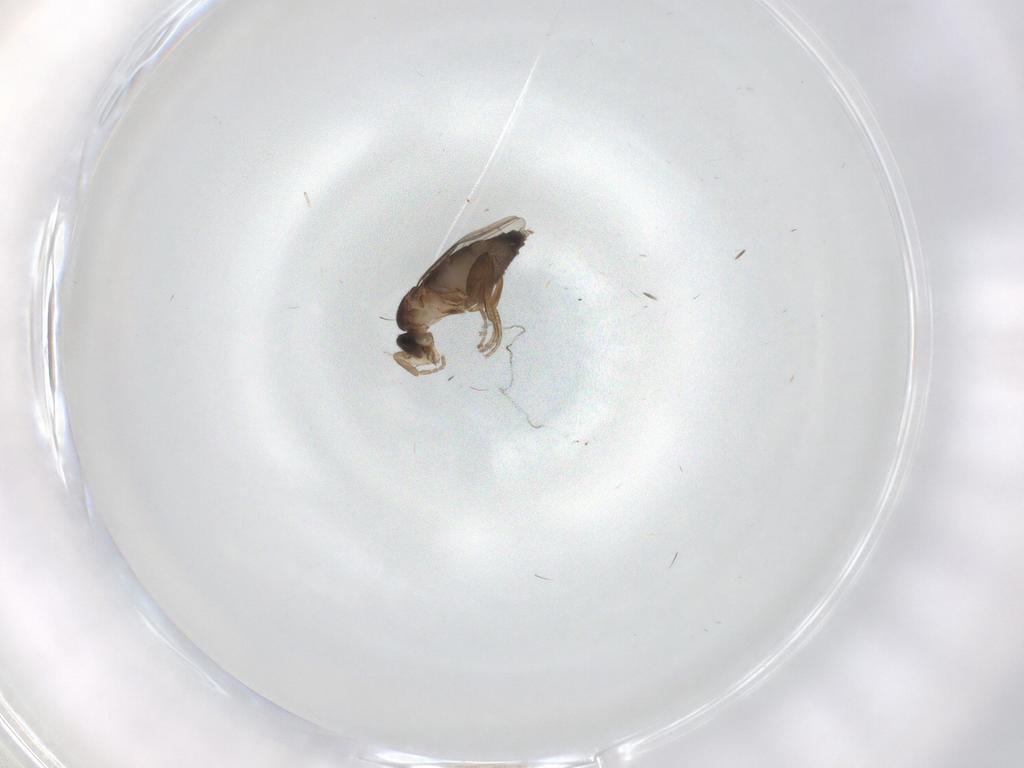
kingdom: Animalia
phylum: Arthropoda
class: Insecta
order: Diptera
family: Phoridae
